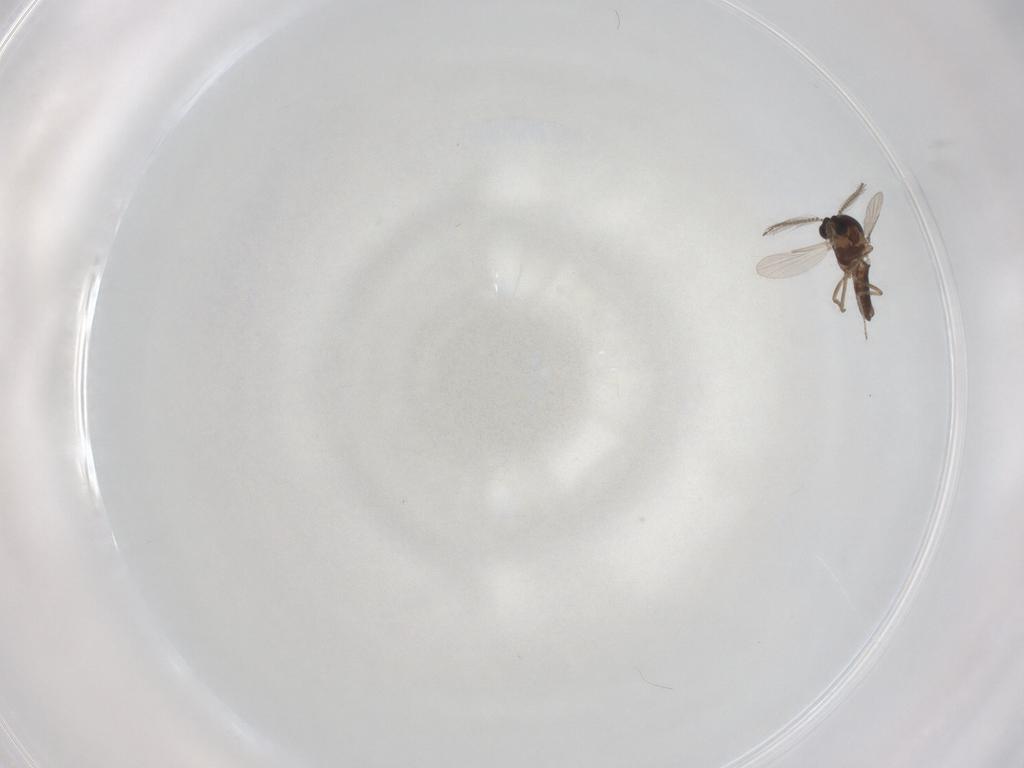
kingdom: Animalia
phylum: Arthropoda
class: Insecta
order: Diptera
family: Ceratopogonidae
